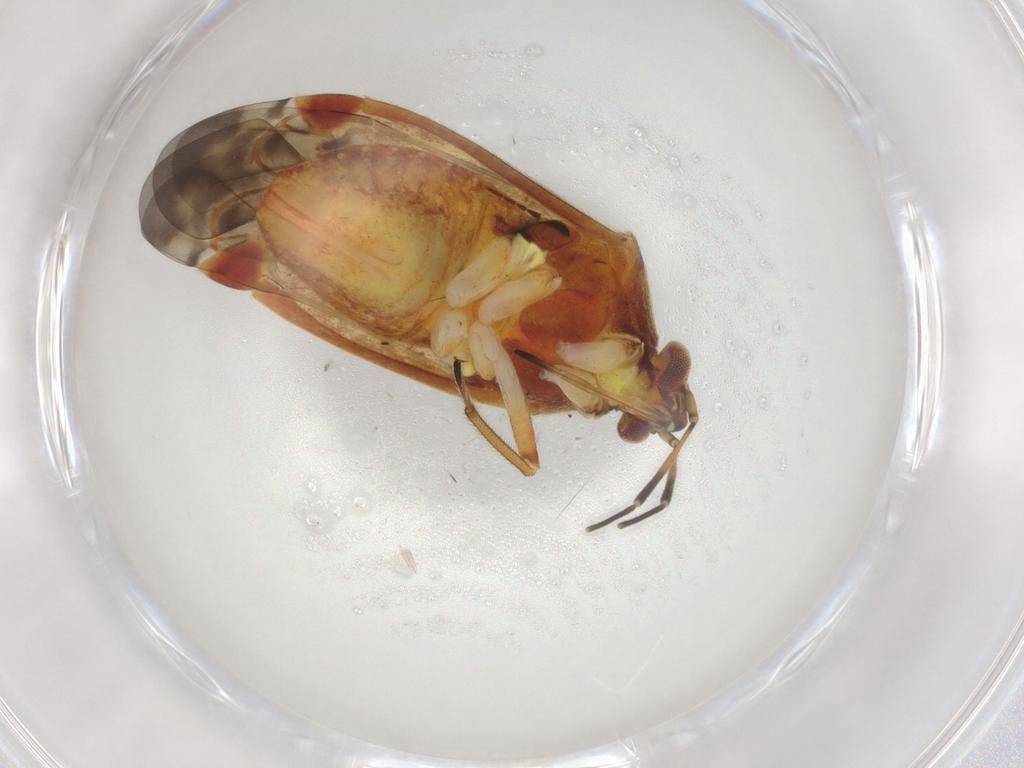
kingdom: Animalia
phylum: Arthropoda
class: Insecta
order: Hemiptera
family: Miridae
